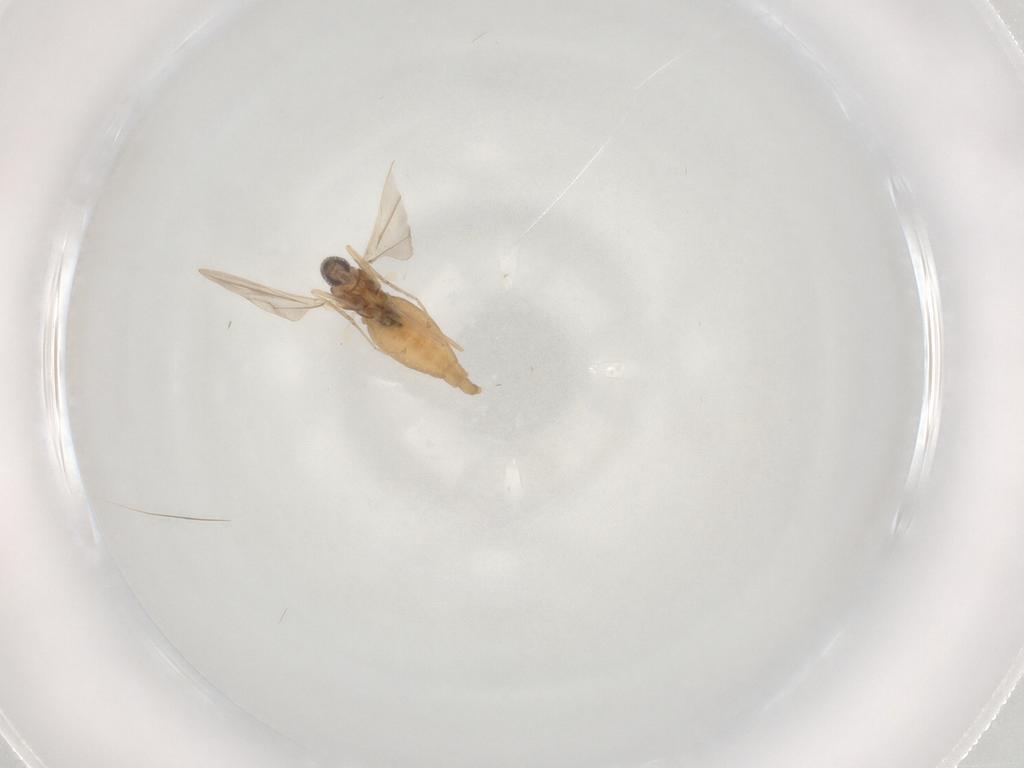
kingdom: Animalia
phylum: Arthropoda
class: Insecta
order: Diptera
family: Cecidomyiidae
